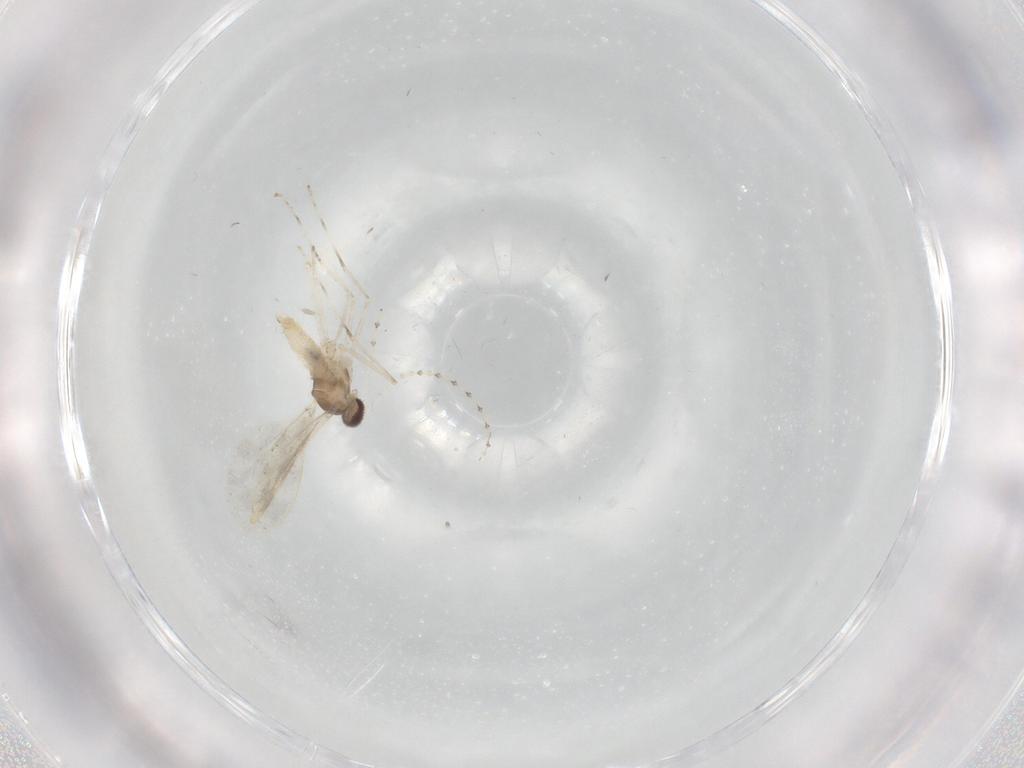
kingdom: Animalia
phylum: Arthropoda
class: Insecta
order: Diptera
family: Cecidomyiidae
